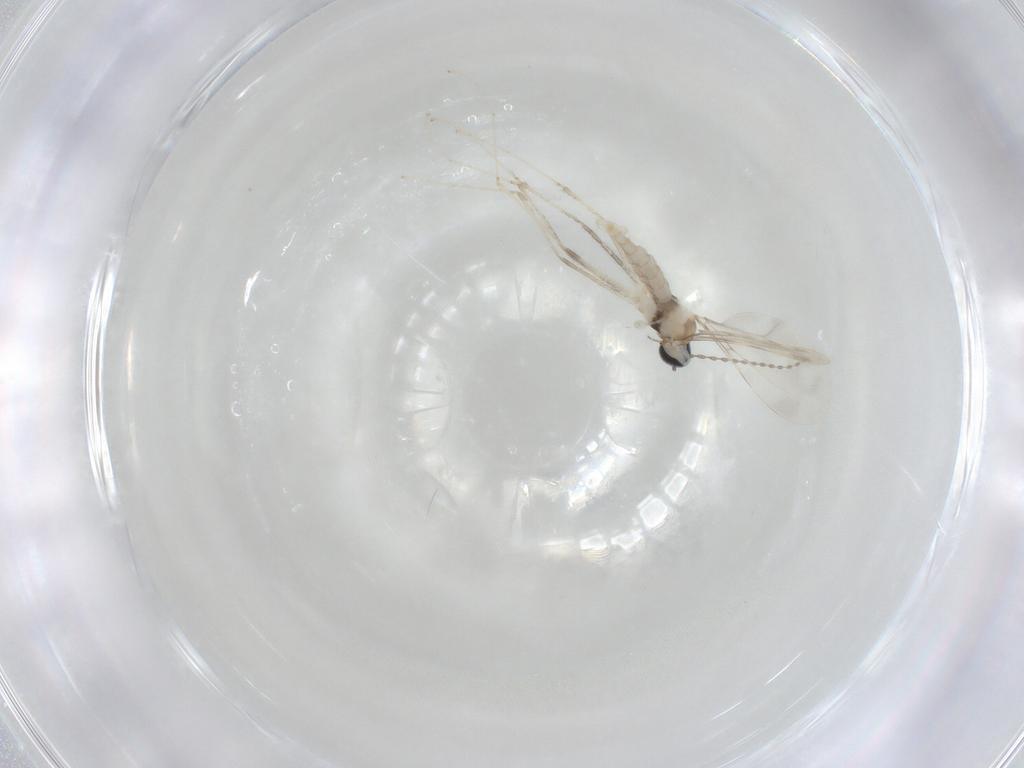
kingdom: Animalia
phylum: Arthropoda
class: Insecta
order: Diptera
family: Cecidomyiidae
